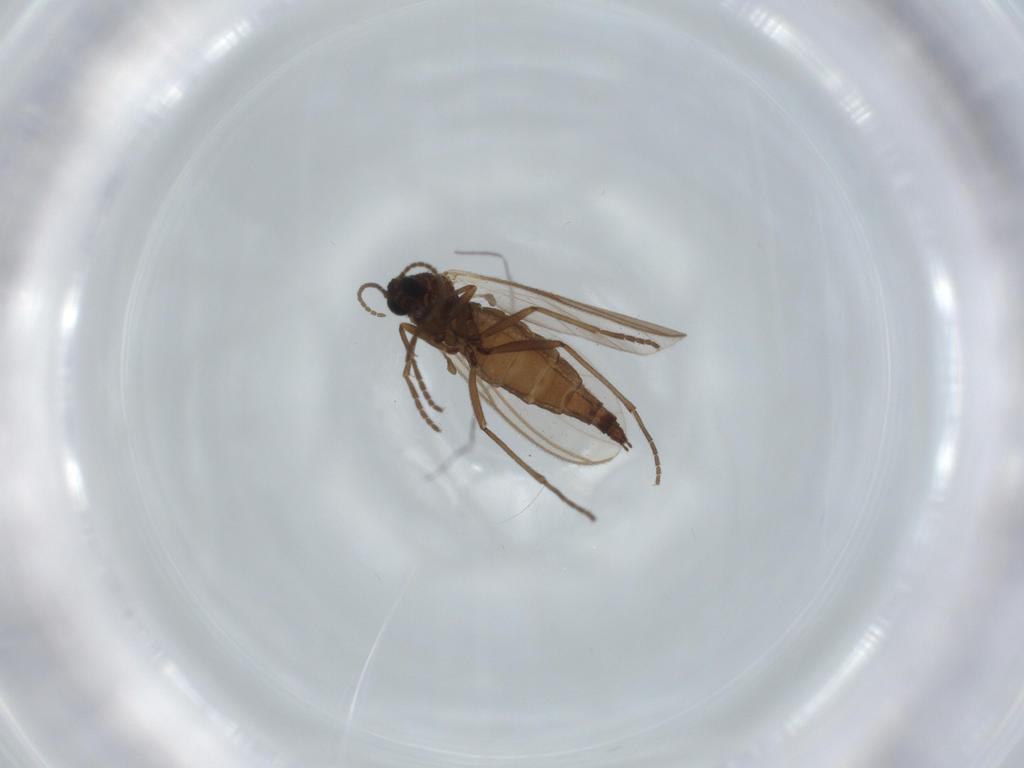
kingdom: Animalia
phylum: Arthropoda
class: Insecta
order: Diptera
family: Sciaridae
